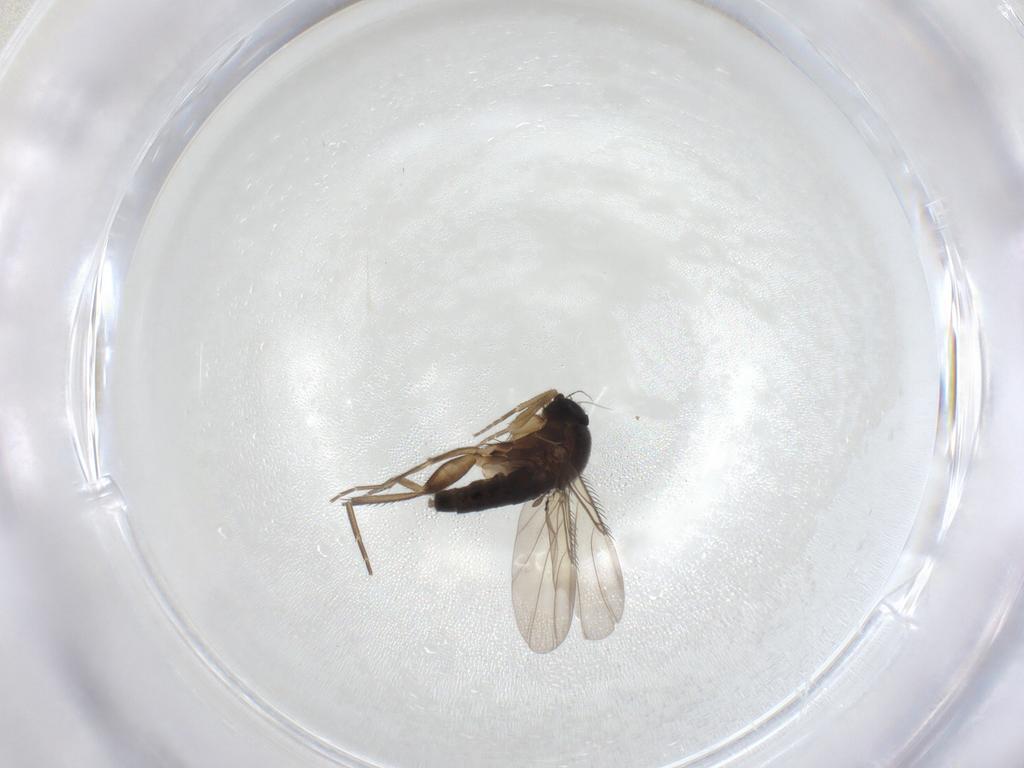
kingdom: Animalia
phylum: Arthropoda
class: Insecta
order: Diptera
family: Phoridae
